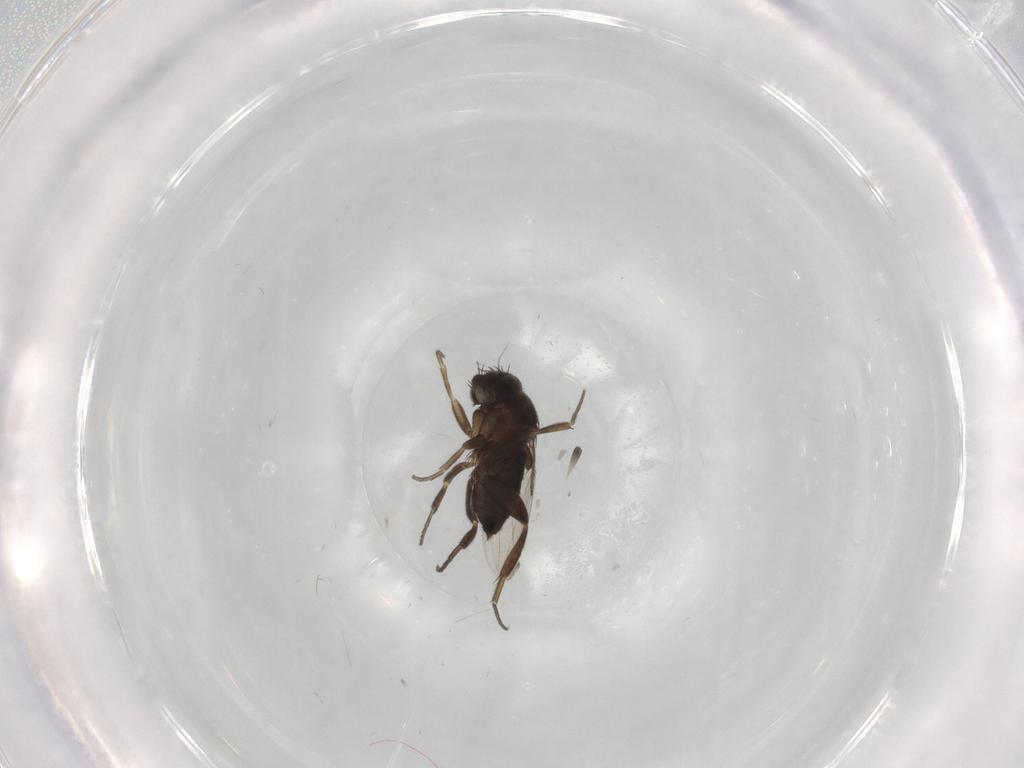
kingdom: Animalia
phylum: Arthropoda
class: Insecta
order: Diptera
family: Phoridae
